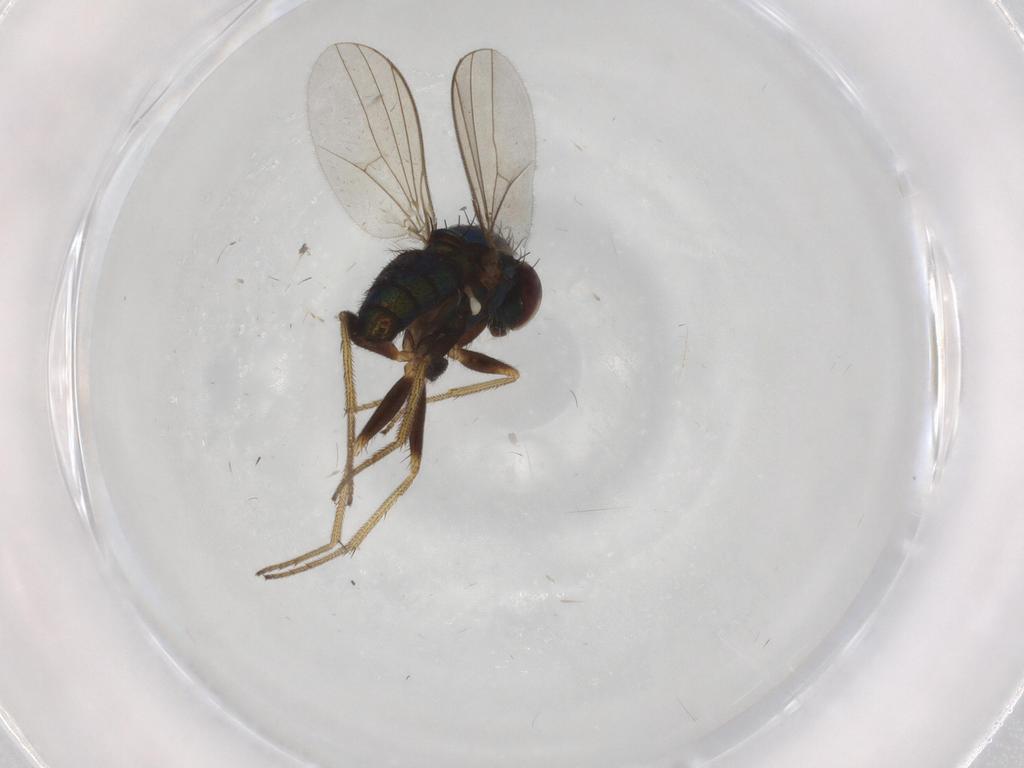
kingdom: Animalia
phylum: Arthropoda
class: Insecta
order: Diptera
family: Dolichopodidae
